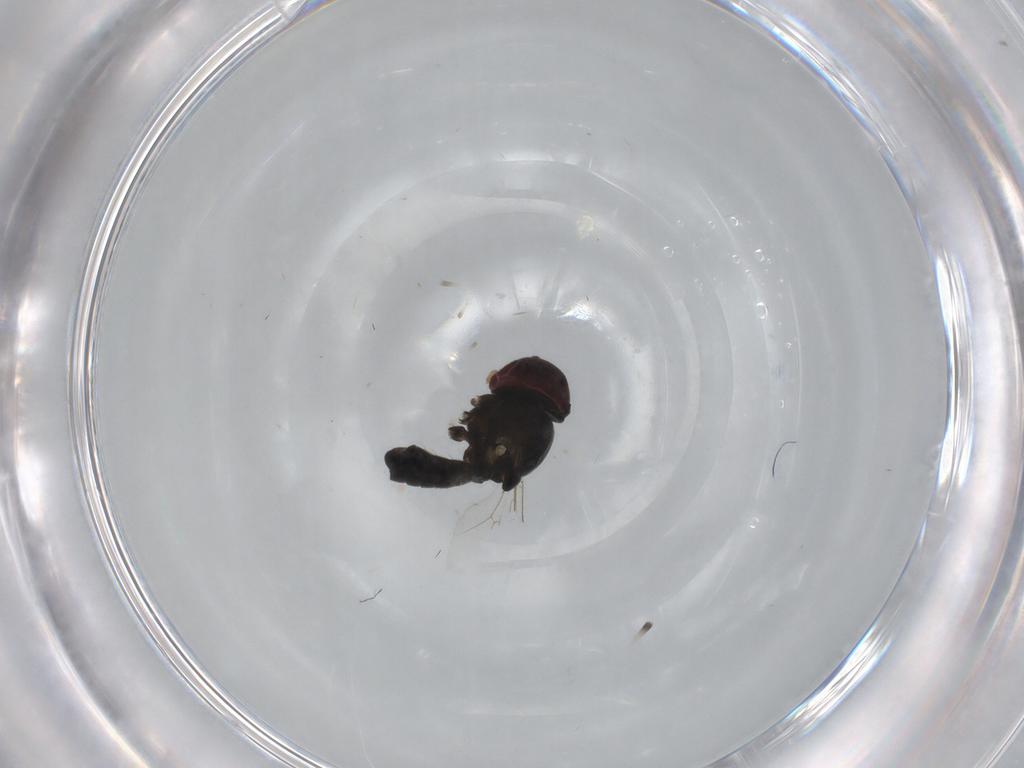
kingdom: Animalia
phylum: Arthropoda
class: Insecta
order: Diptera
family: Pipunculidae
